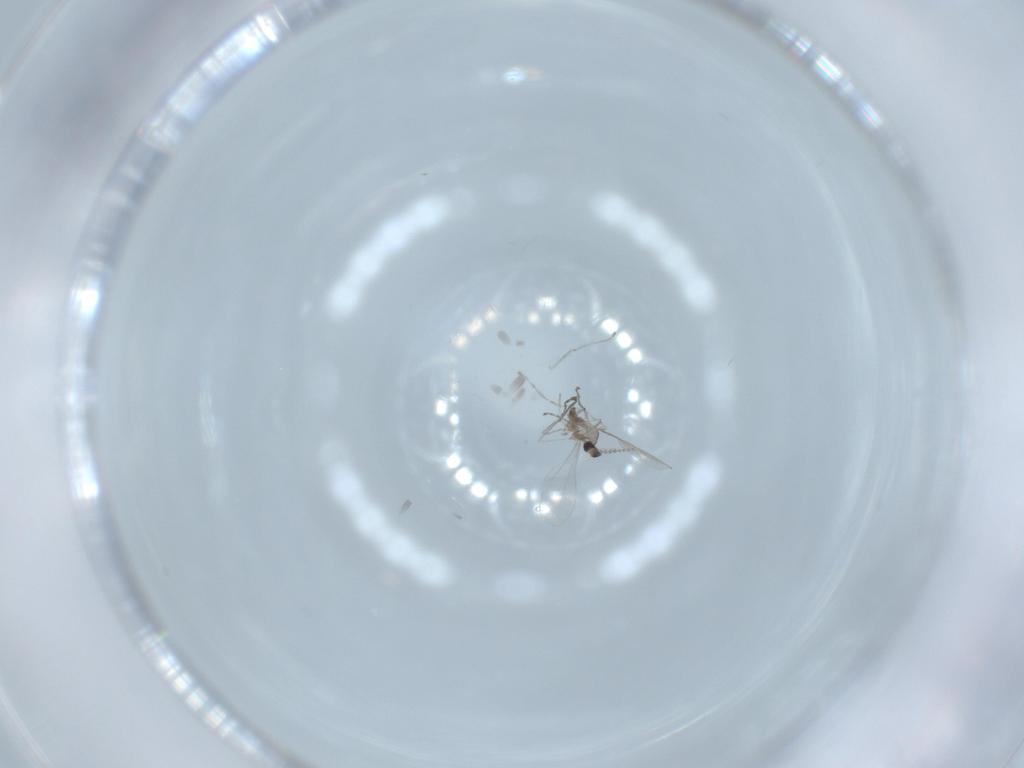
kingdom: Animalia
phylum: Arthropoda
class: Insecta
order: Diptera
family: Cecidomyiidae
